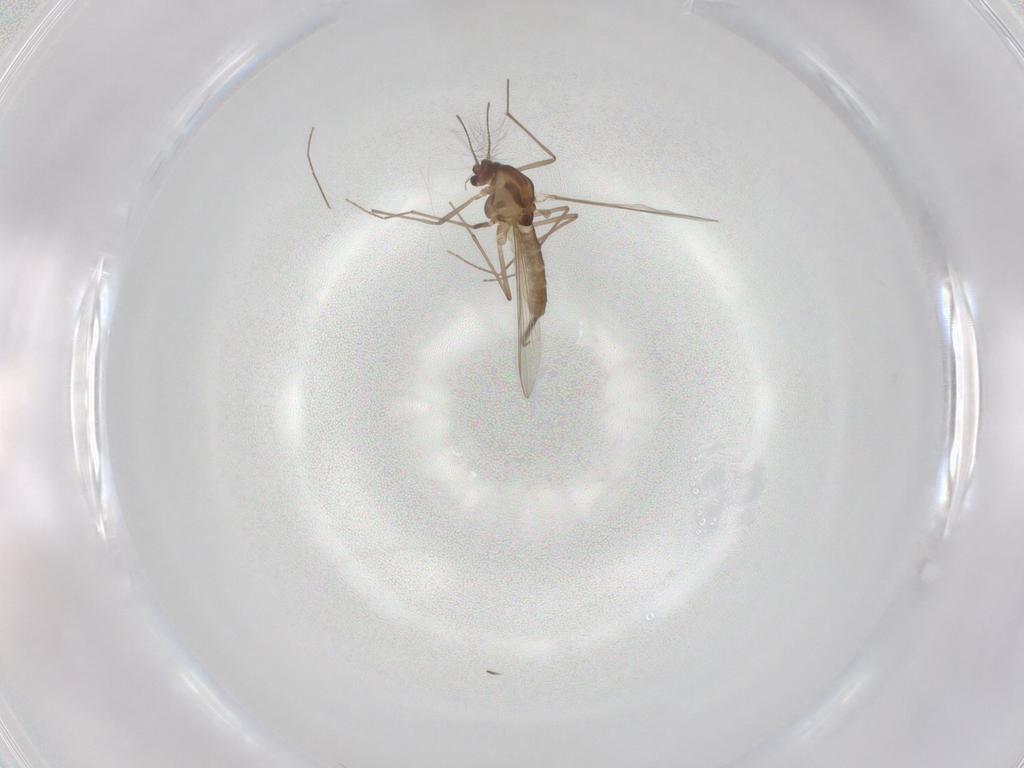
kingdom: Animalia
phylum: Arthropoda
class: Insecta
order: Diptera
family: Chironomidae
